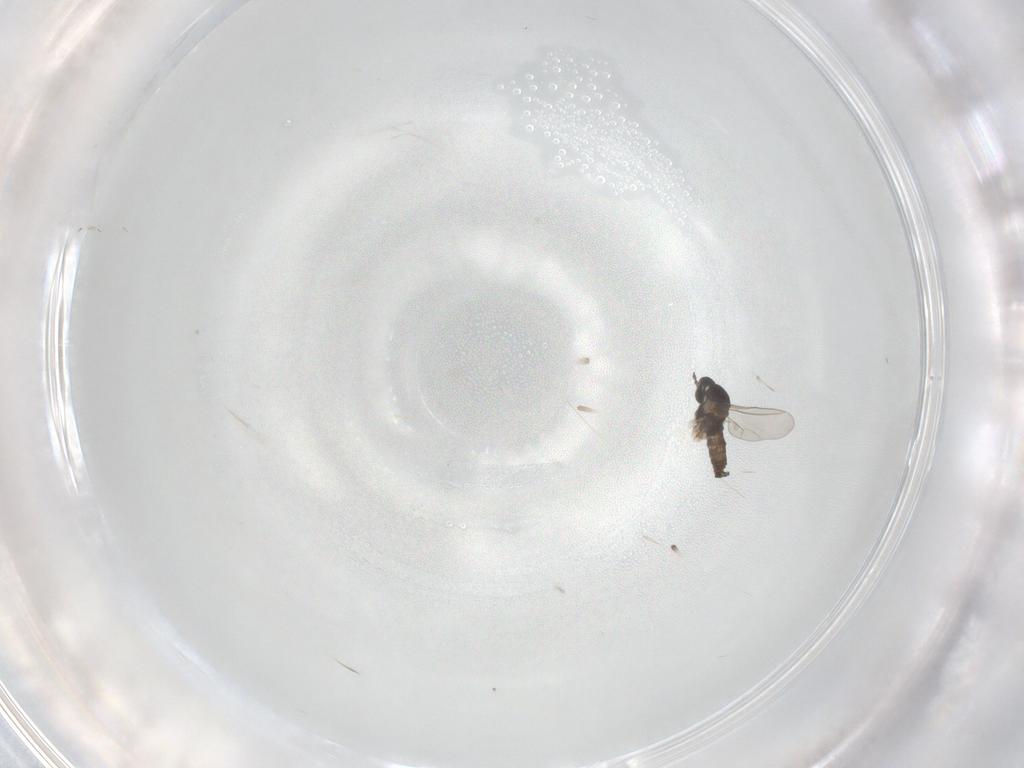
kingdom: Animalia
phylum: Arthropoda
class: Insecta
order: Diptera
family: Cecidomyiidae
